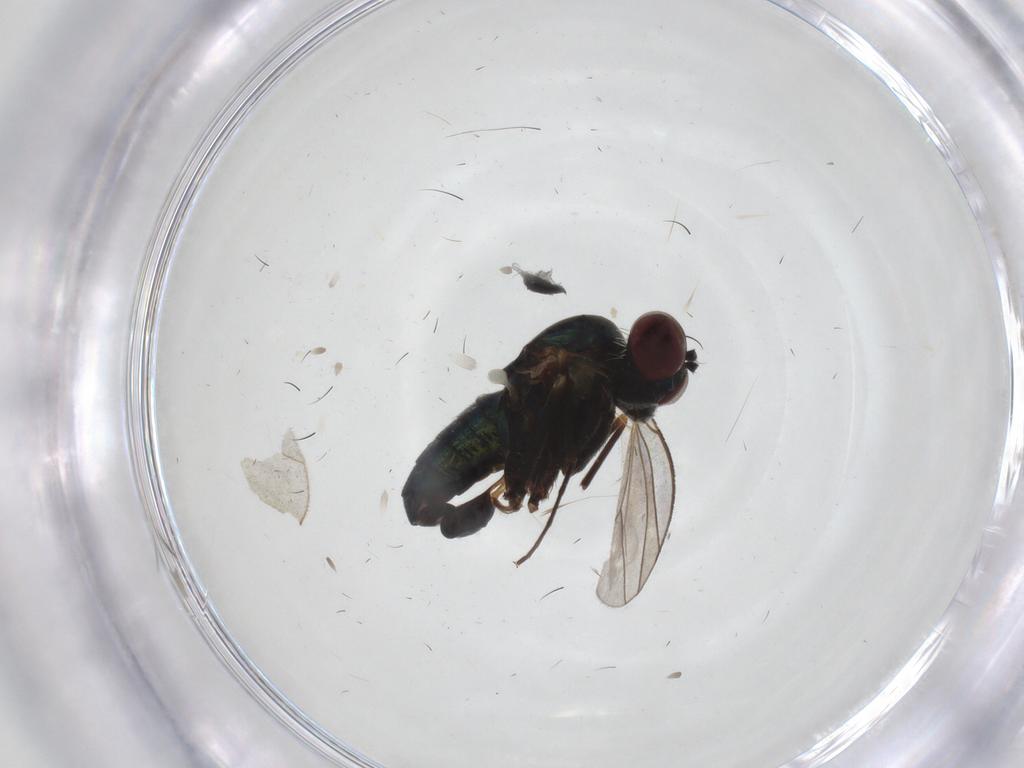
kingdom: Animalia
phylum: Arthropoda
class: Insecta
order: Diptera
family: Dolichopodidae
